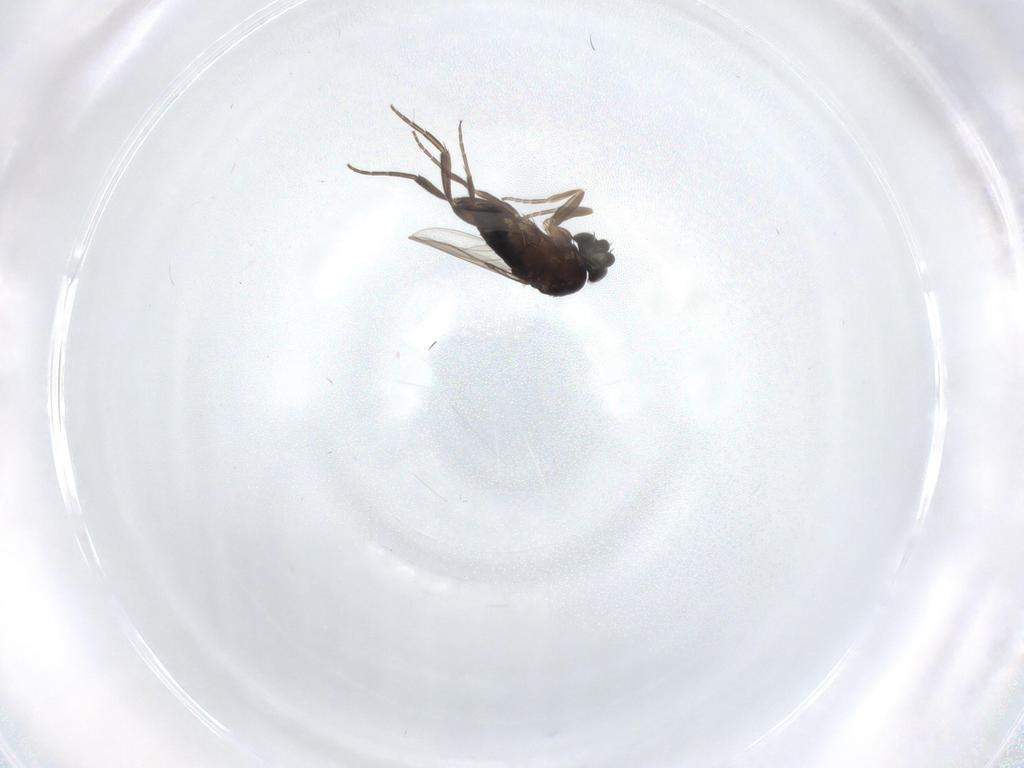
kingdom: Animalia
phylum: Arthropoda
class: Insecta
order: Diptera
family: Phoridae
